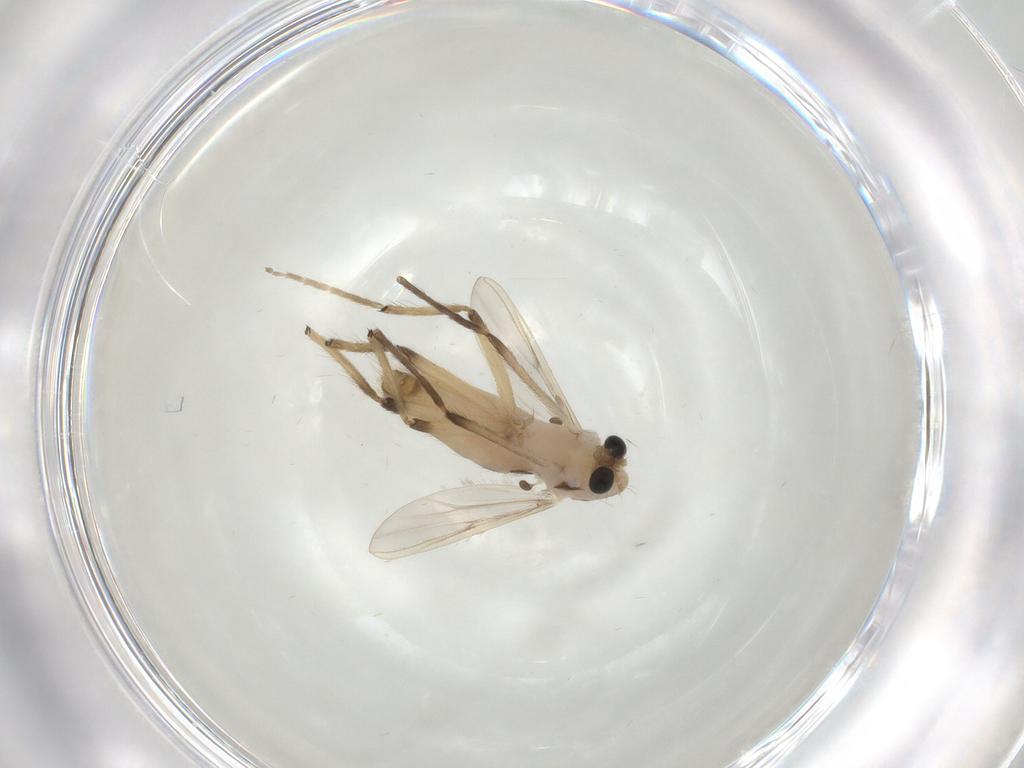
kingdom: Animalia
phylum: Arthropoda
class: Insecta
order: Diptera
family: Chironomidae
